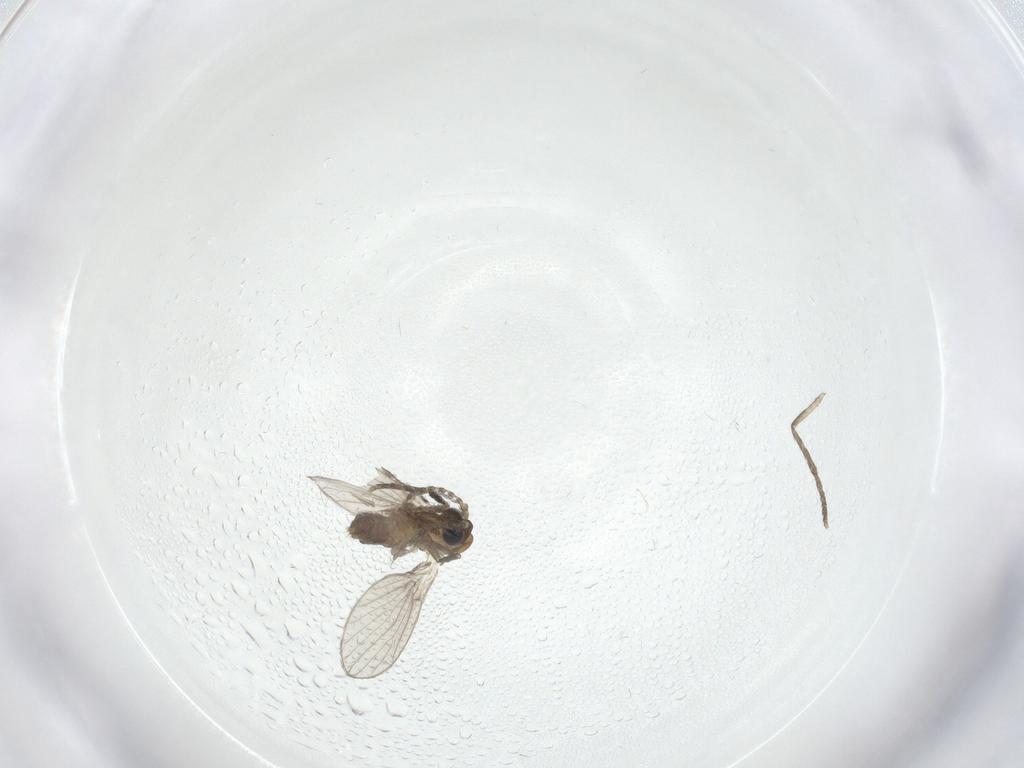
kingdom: Animalia
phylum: Arthropoda
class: Insecta
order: Diptera
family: Psychodidae
